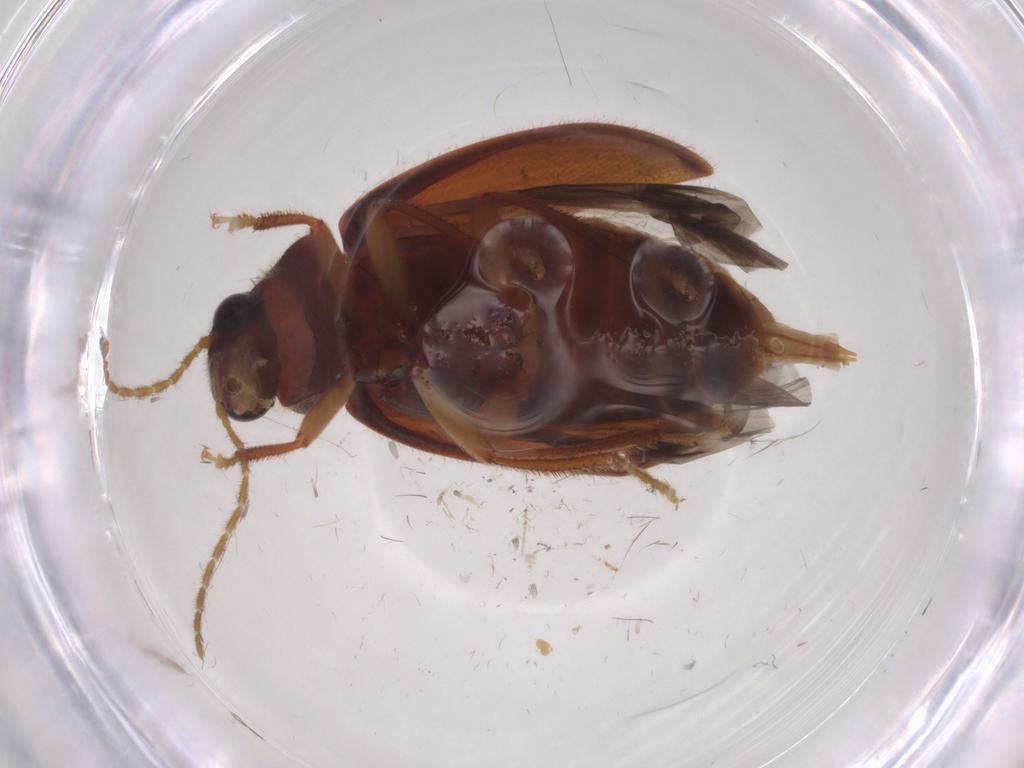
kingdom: Animalia
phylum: Arthropoda
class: Insecta
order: Coleoptera
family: Ptilodactylidae
